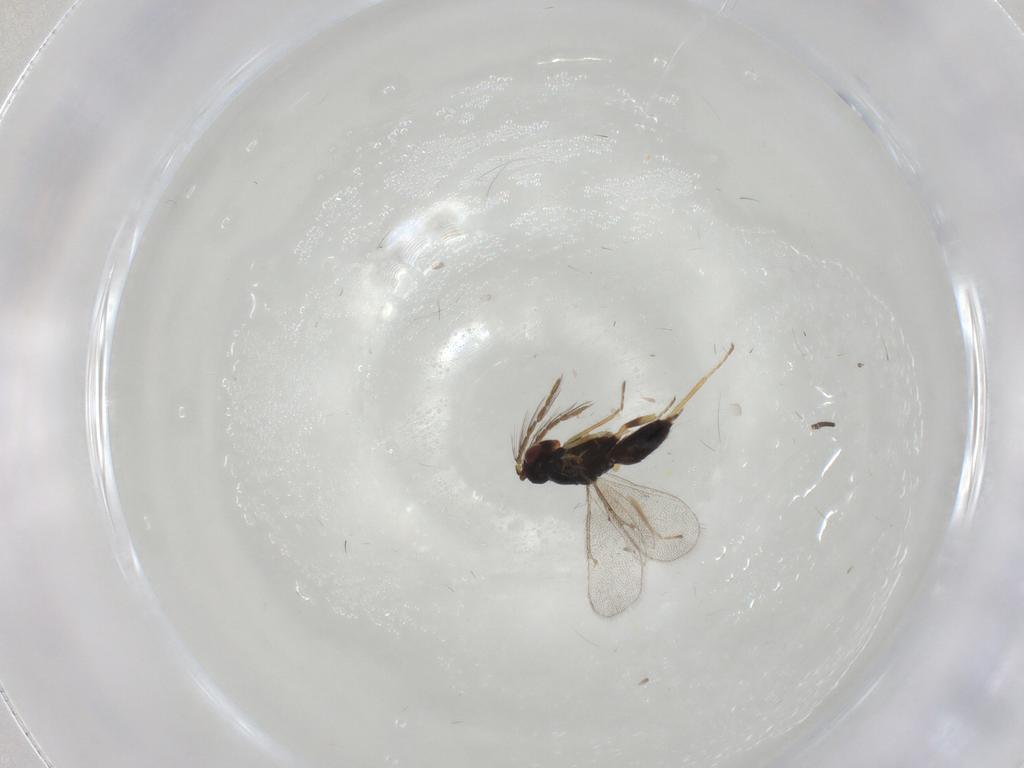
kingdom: Animalia
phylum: Arthropoda
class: Insecta
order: Hymenoptera
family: Eulophidae
